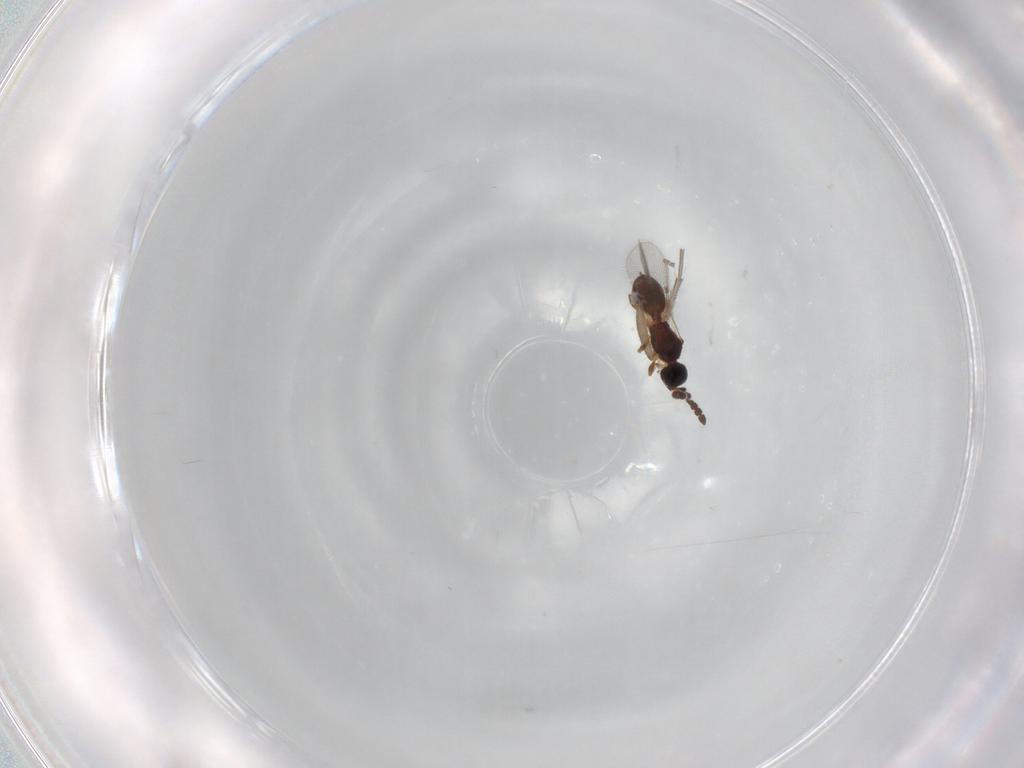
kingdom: Animalia
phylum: Arthropoda
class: Insecta
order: Diptera
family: Sciaridae
